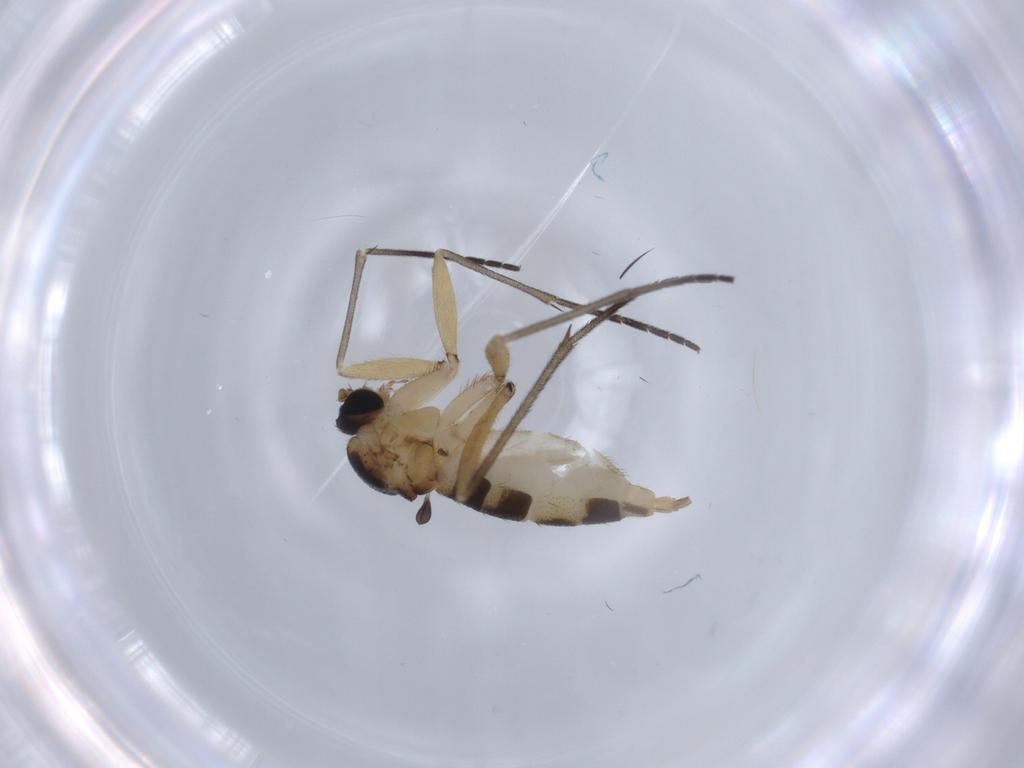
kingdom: Animalia
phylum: Arthropoda
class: Insecta
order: Diptera
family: Sciaridae
